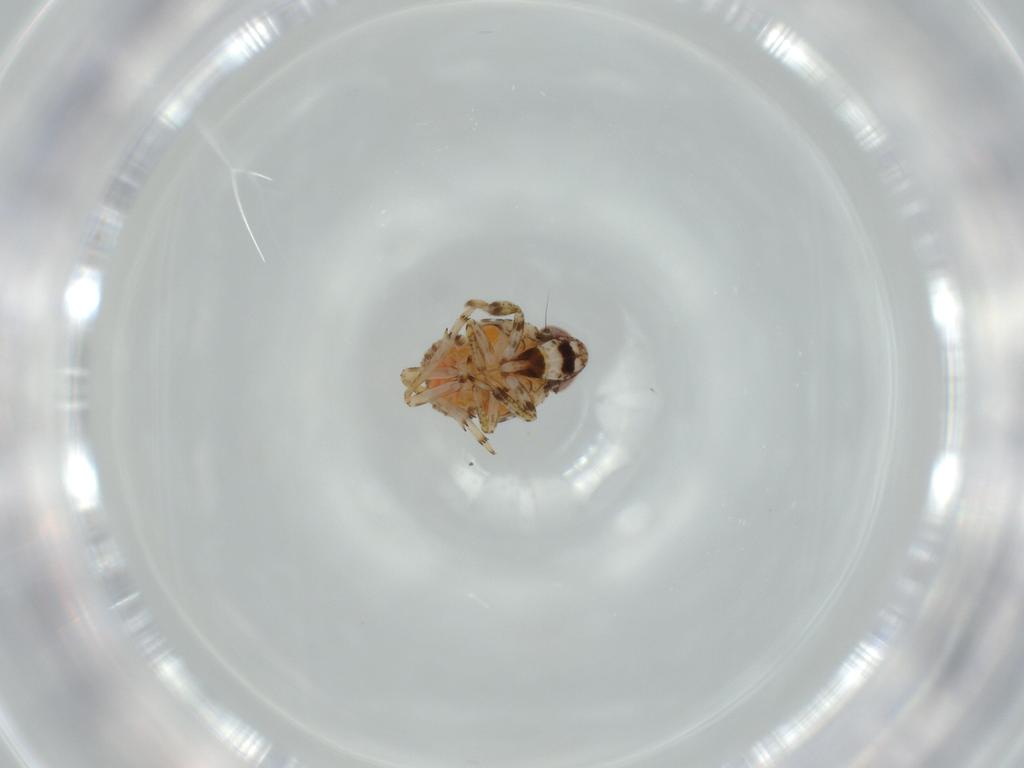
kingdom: Animalia
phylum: Arthropoda
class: Insecta
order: Hemiptera
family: Issidae
